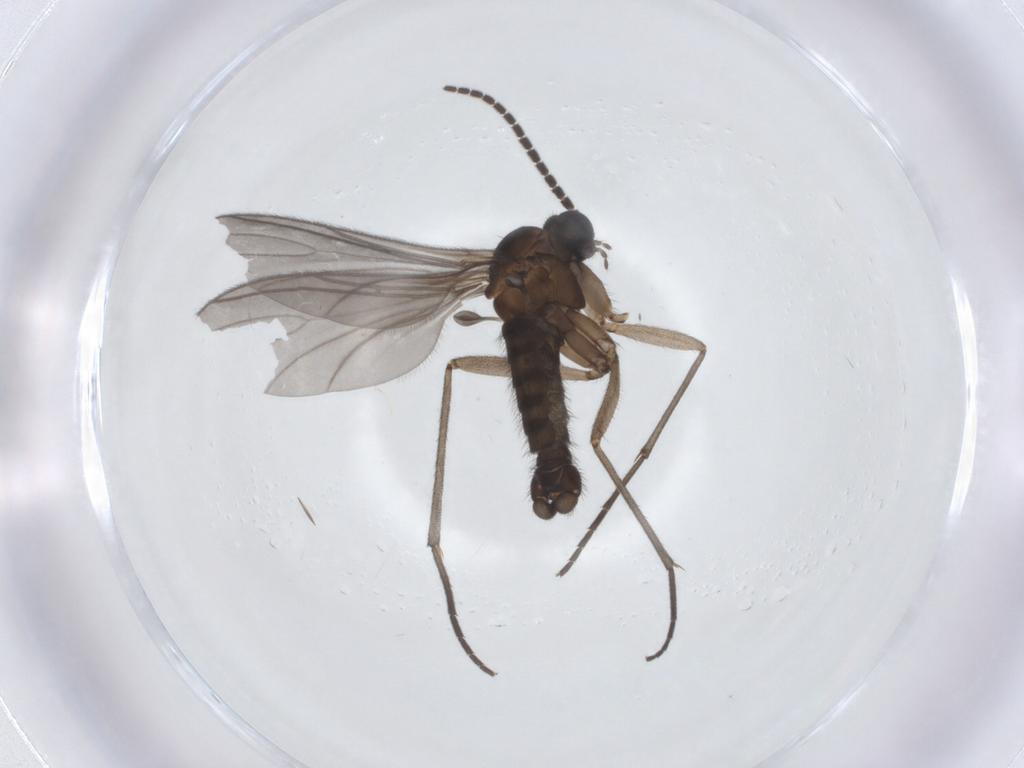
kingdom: Animalia
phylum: Arthropoda
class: Insecta
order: Diptera
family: Sciaridae
